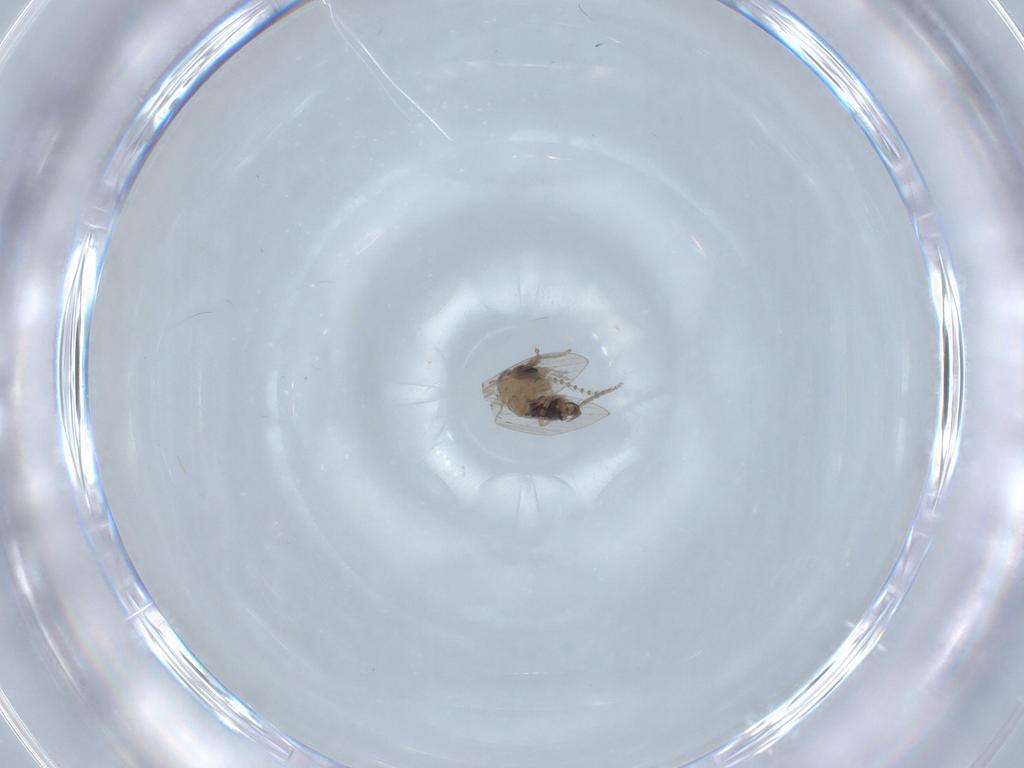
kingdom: Animalia
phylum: Arthropoda
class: Insecta
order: Diptera
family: Psychodidae
